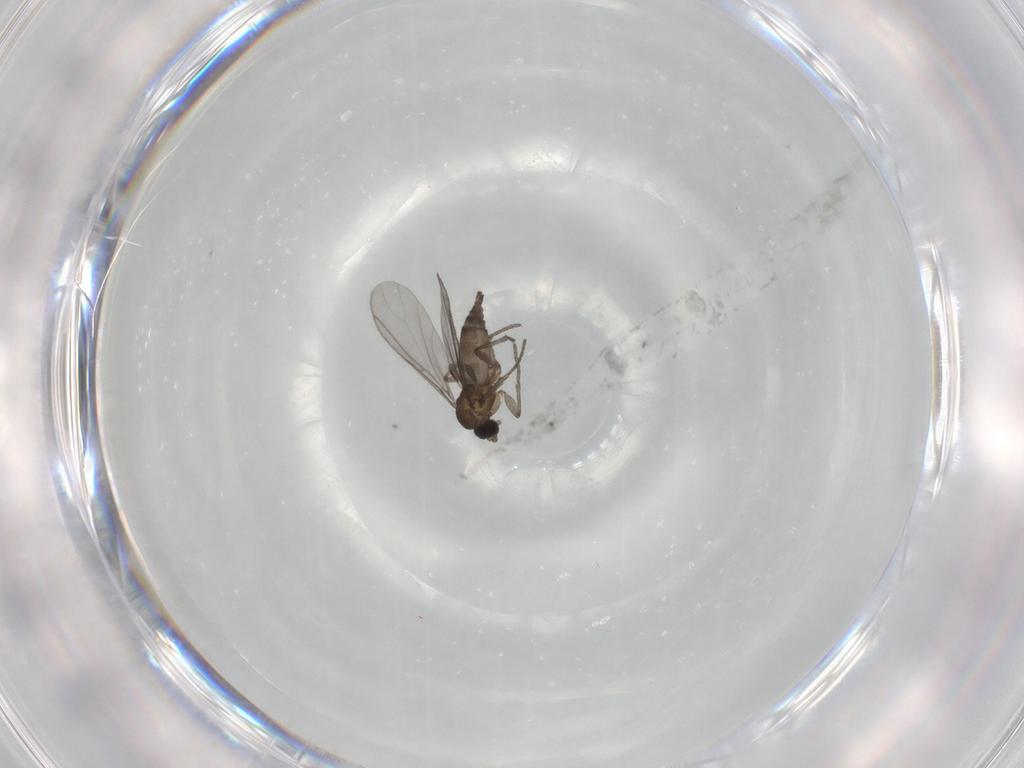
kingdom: Animalia
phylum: Arthropoda
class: Insecta
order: Diptera
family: Sciaridae
